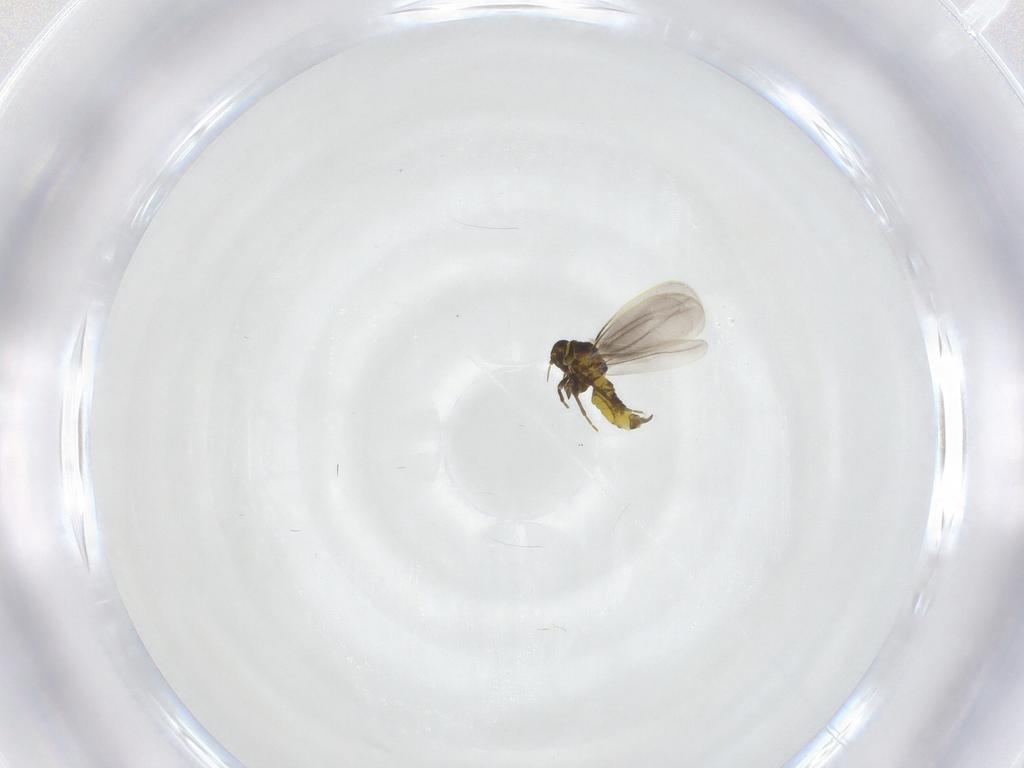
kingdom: Animalia
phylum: Arthropoda
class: Insecta
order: Hemiptera
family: Aleyrodidae
